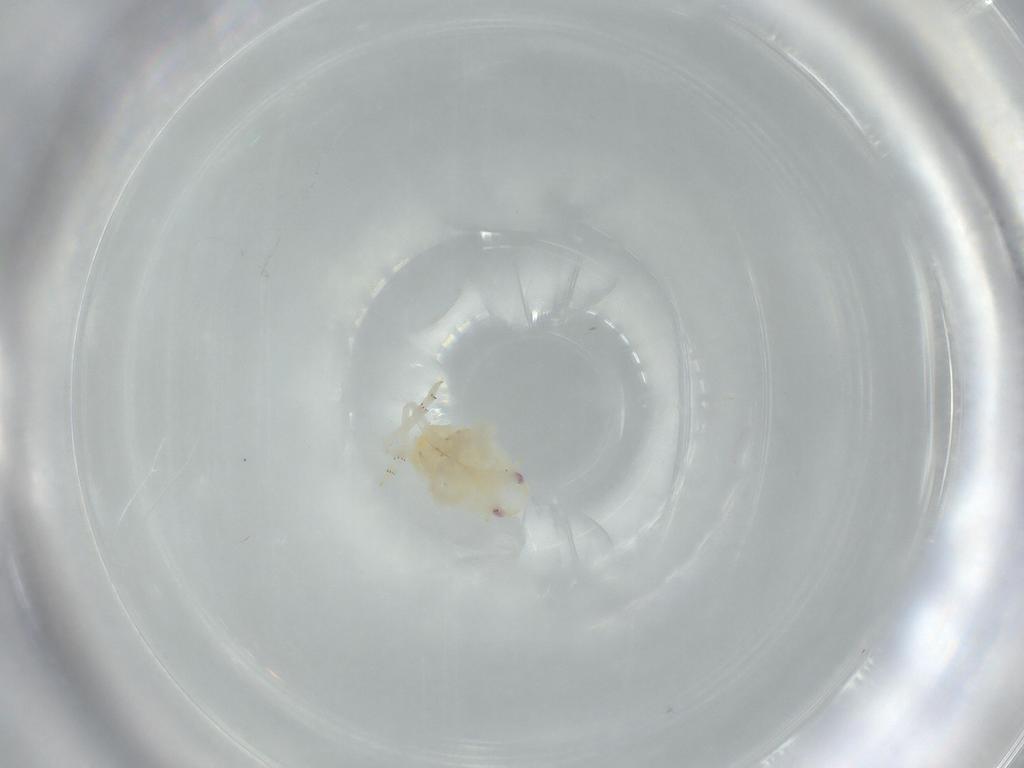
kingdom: Animalia
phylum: Arthropoda
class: Insecta
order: Hemiptera
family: Flatidae
